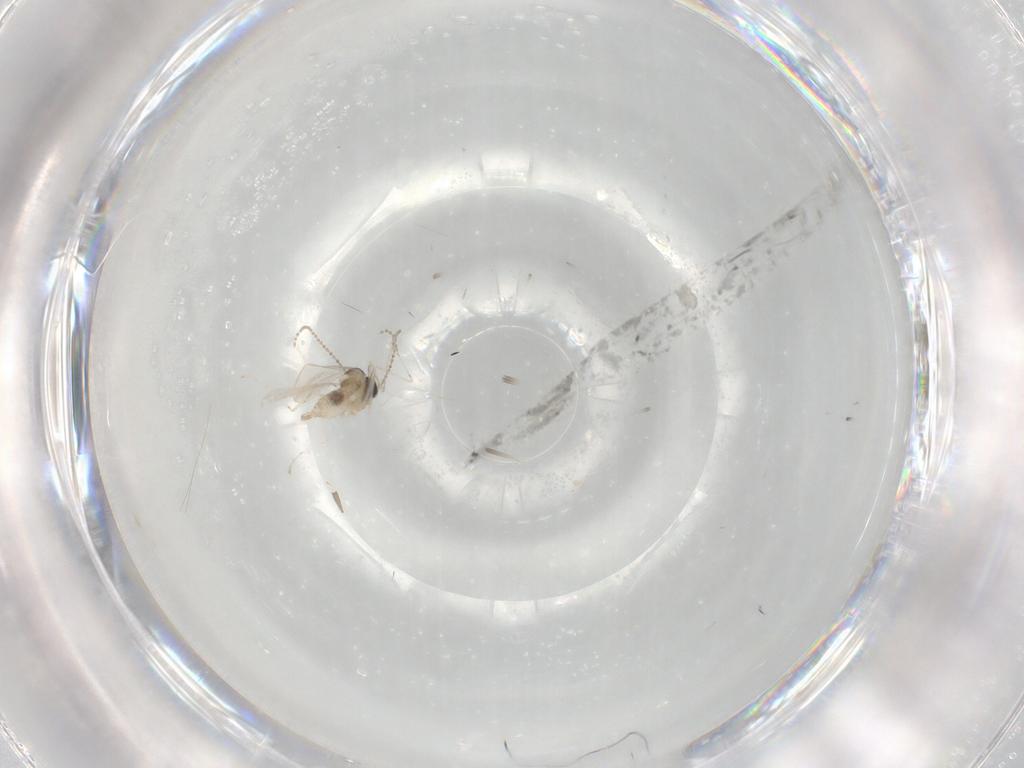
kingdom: Animalia
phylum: Arthropoda
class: Insecta
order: Diptera
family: Cecidomyiidae
